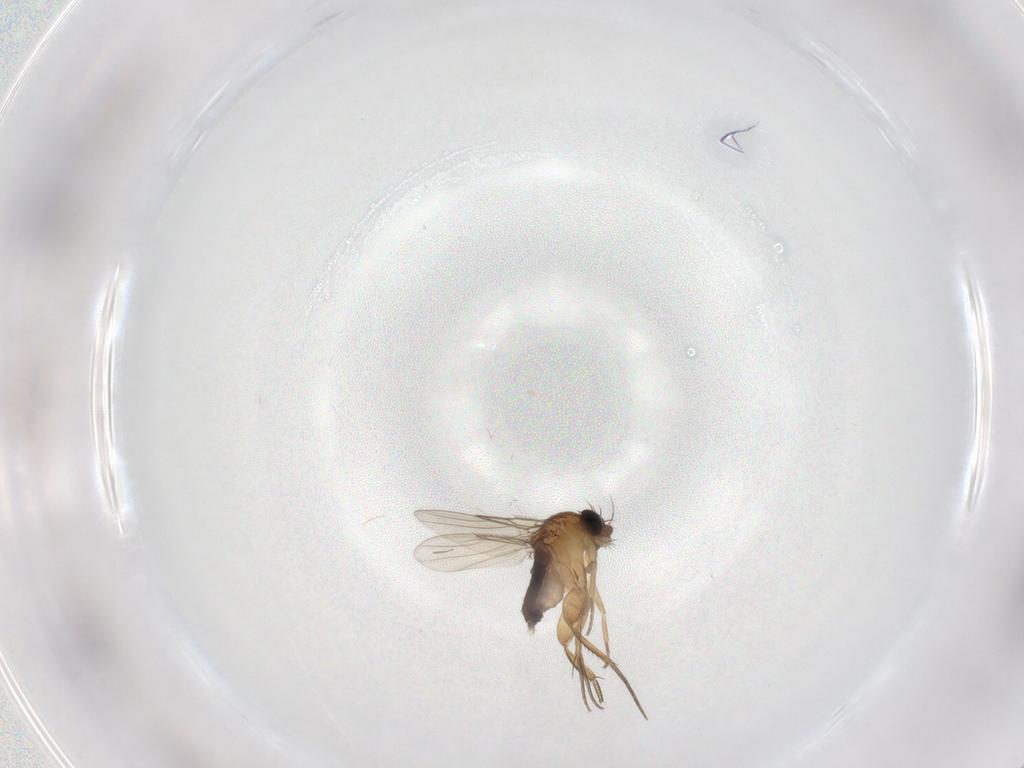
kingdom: Animalia
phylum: Arthropoda
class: Insecta
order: Diptera
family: Phoridae
